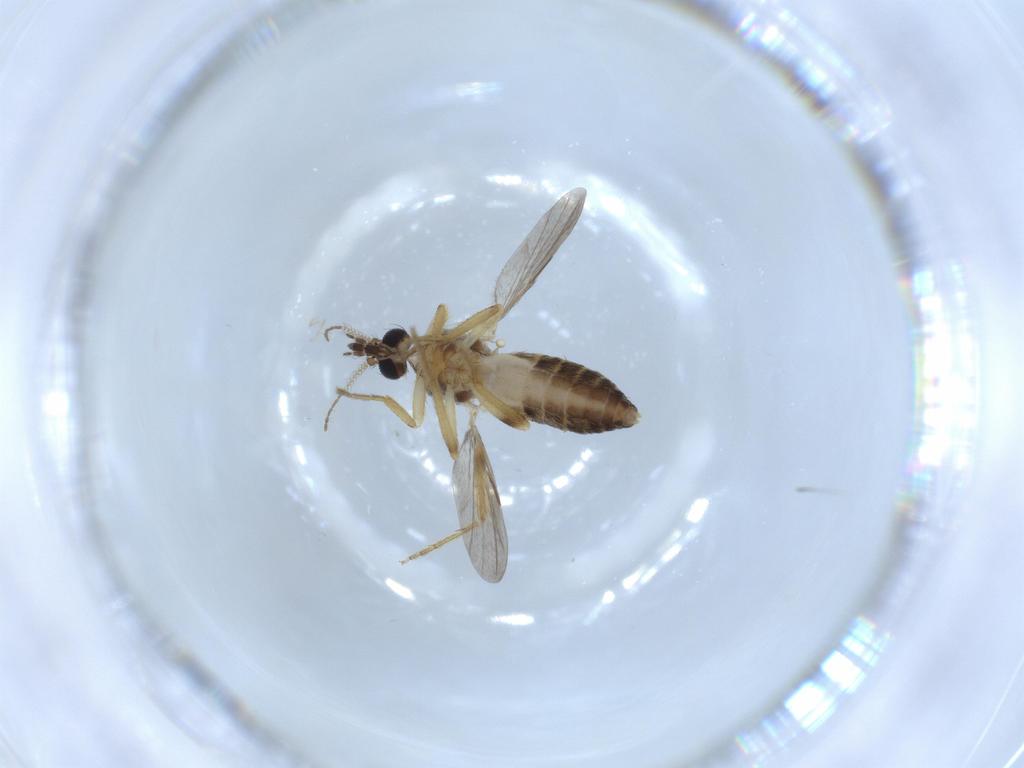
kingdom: Animalia
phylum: Arthropoda
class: Insecta
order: Diptera
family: Ceratopogonidae
